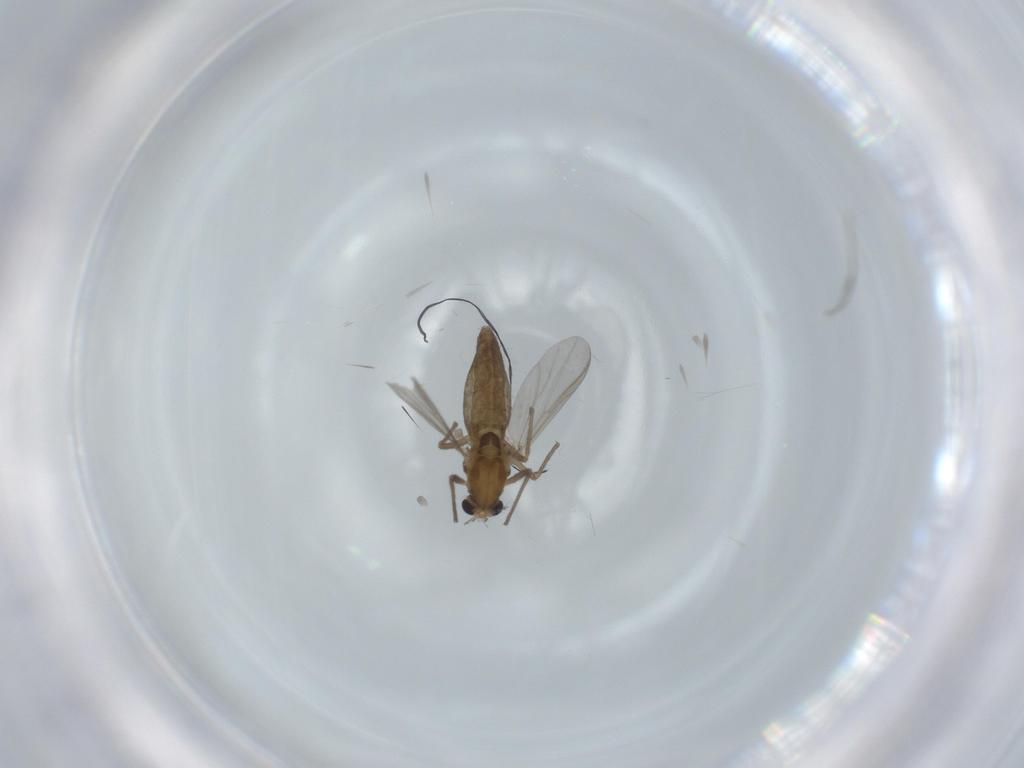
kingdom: Animalia
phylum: Arthropoda
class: Insecta
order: Diptera
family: Chironomidae
